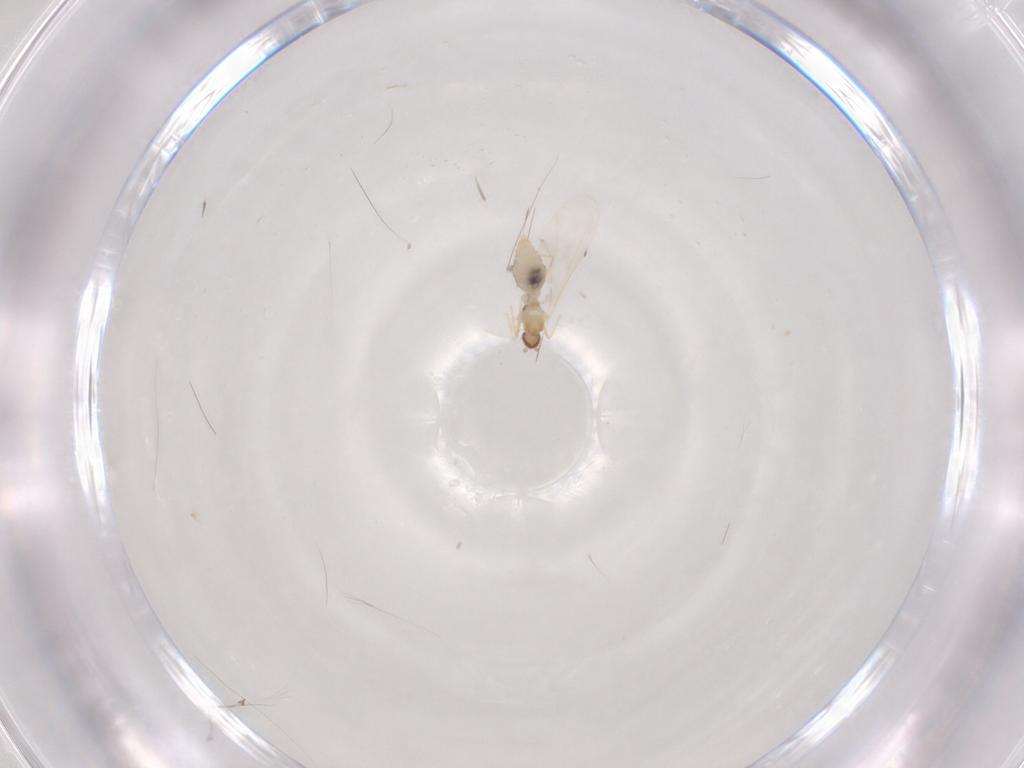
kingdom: Animalia
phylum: Arthropoda
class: Insecta
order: Diptera
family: Cecidomyiidae
